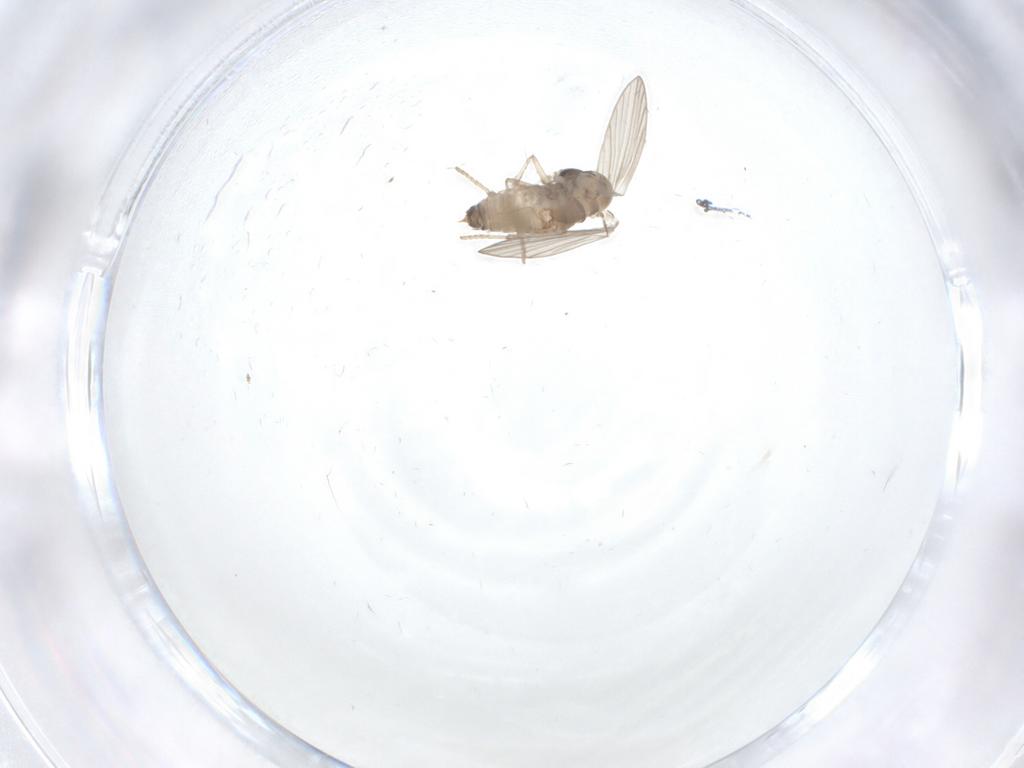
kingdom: Animalia
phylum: Arthropoda
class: Insecta
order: Diptera
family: Psychodidae
